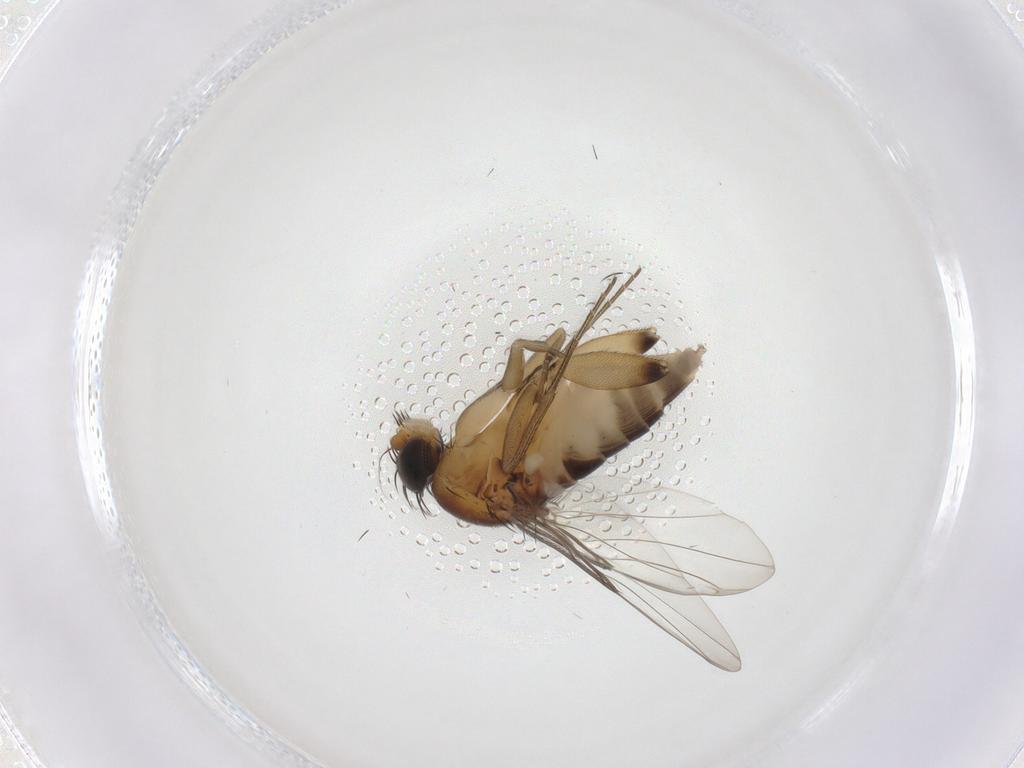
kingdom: Animalia
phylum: Arthropoda
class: Insecta
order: Diptera
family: Phoridae
